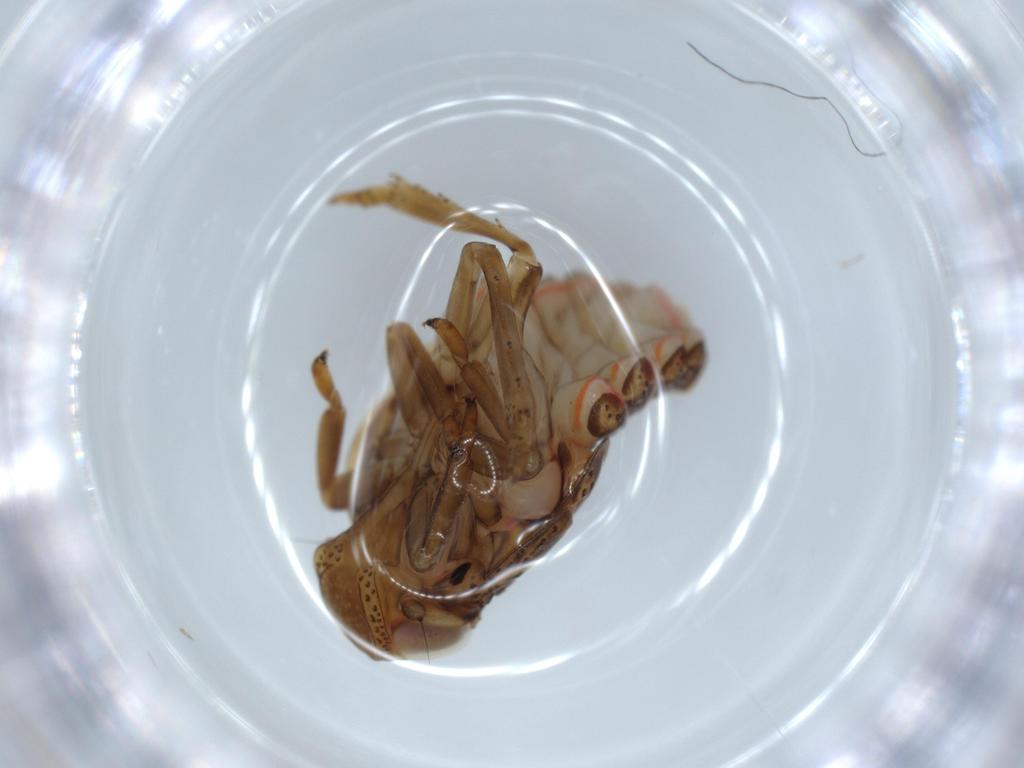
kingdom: Animalia
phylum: Arthropoda
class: Insecta
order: Hemiptera
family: Issidae
